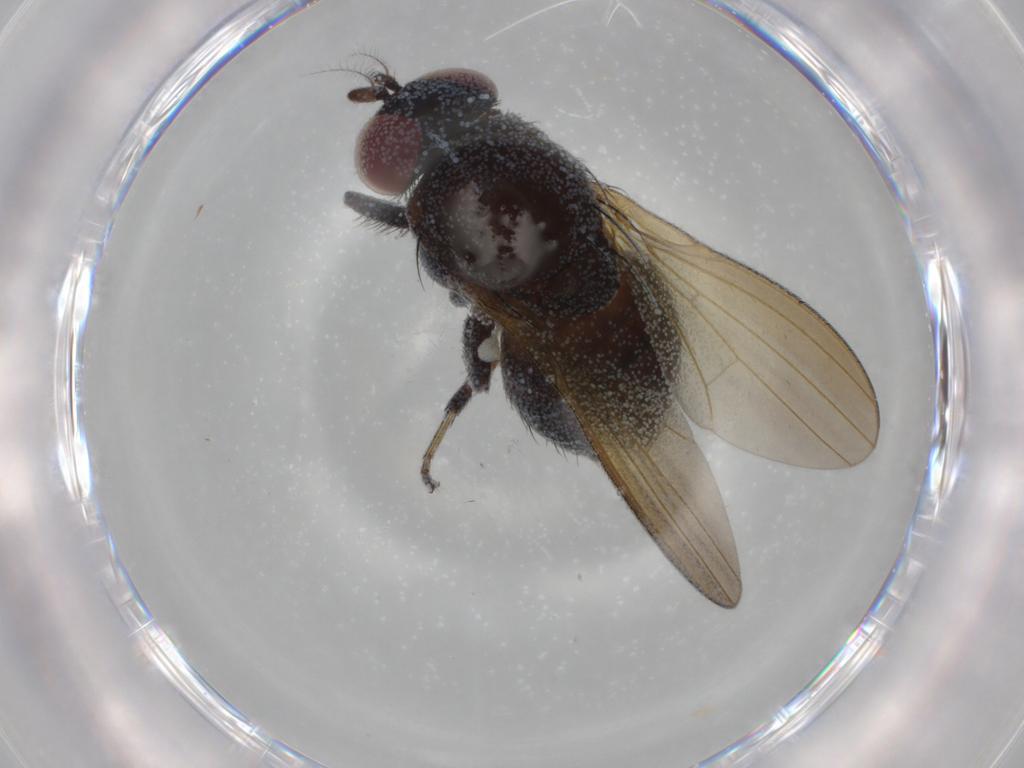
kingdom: Animalia
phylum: Arthropoda
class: Insecta
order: Diptera
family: Lauxaniidae
